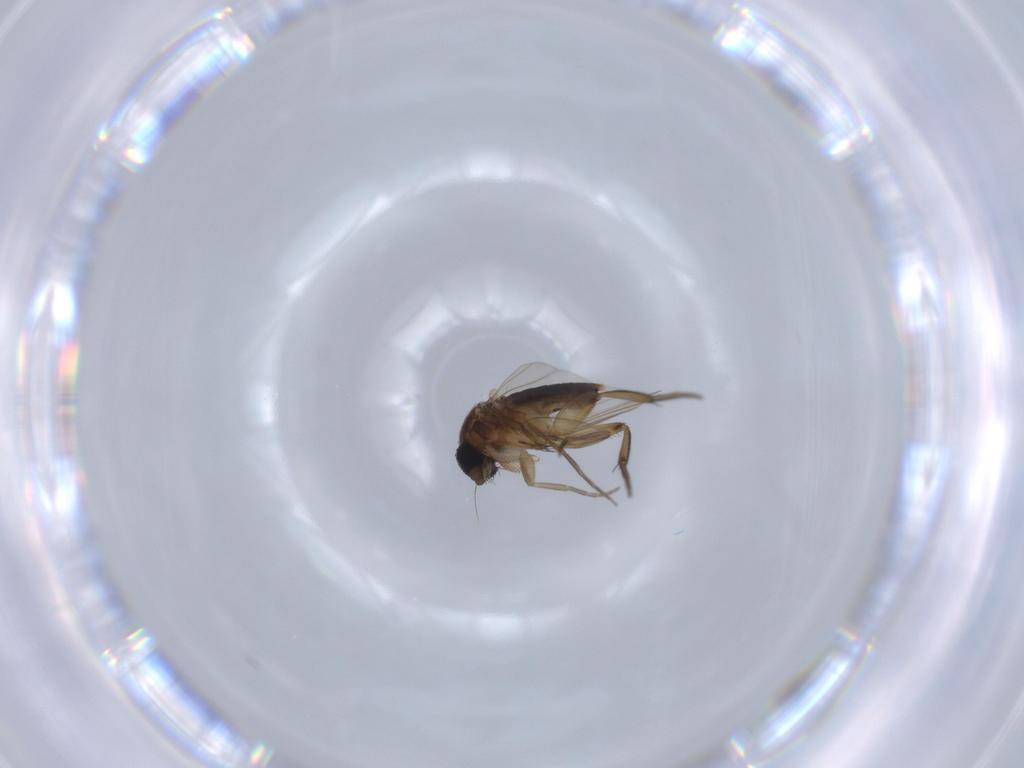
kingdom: Animalia
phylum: Arthropoda
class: Insecta
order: Diptera
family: Phoridae
